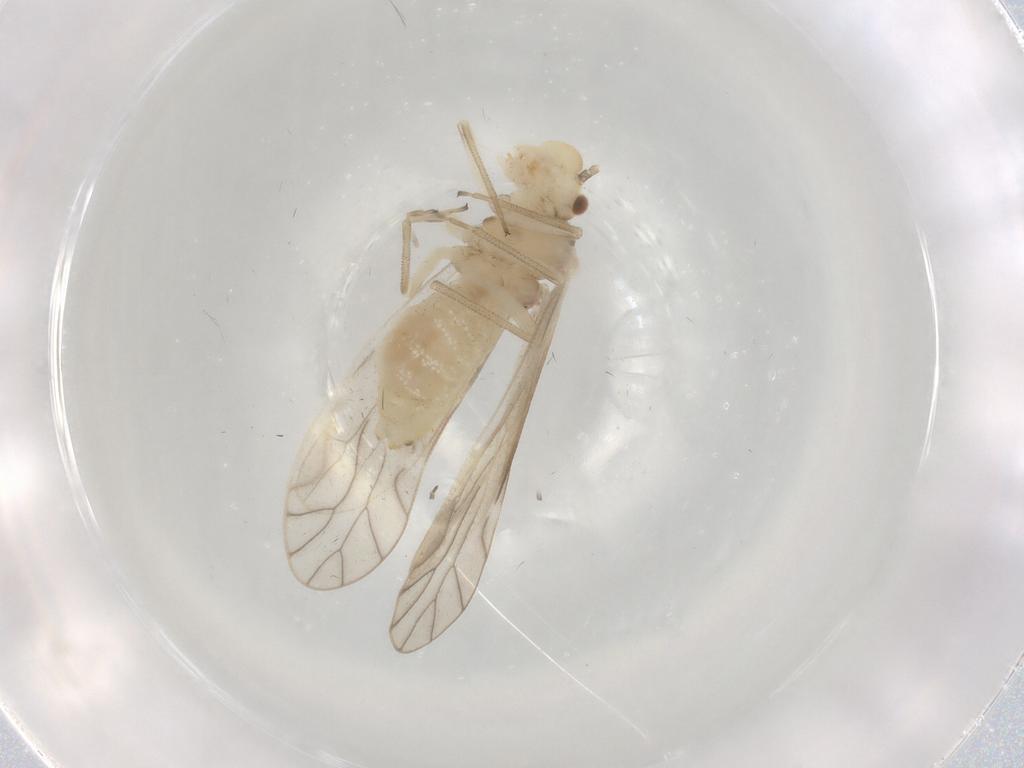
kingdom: Animalia
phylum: Arthropoda
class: Insecta
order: Psocodea
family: Caeciliusidae
